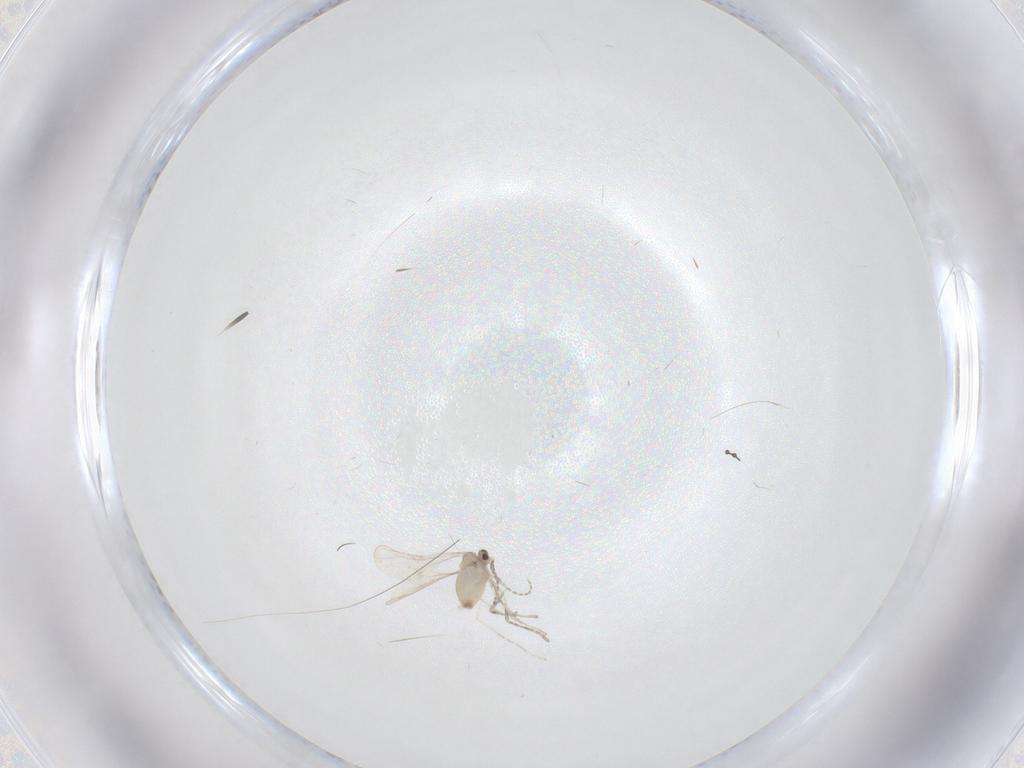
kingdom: Animalia
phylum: Arthropoda
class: Insecta
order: Diptera
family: Cecidomyiidae
